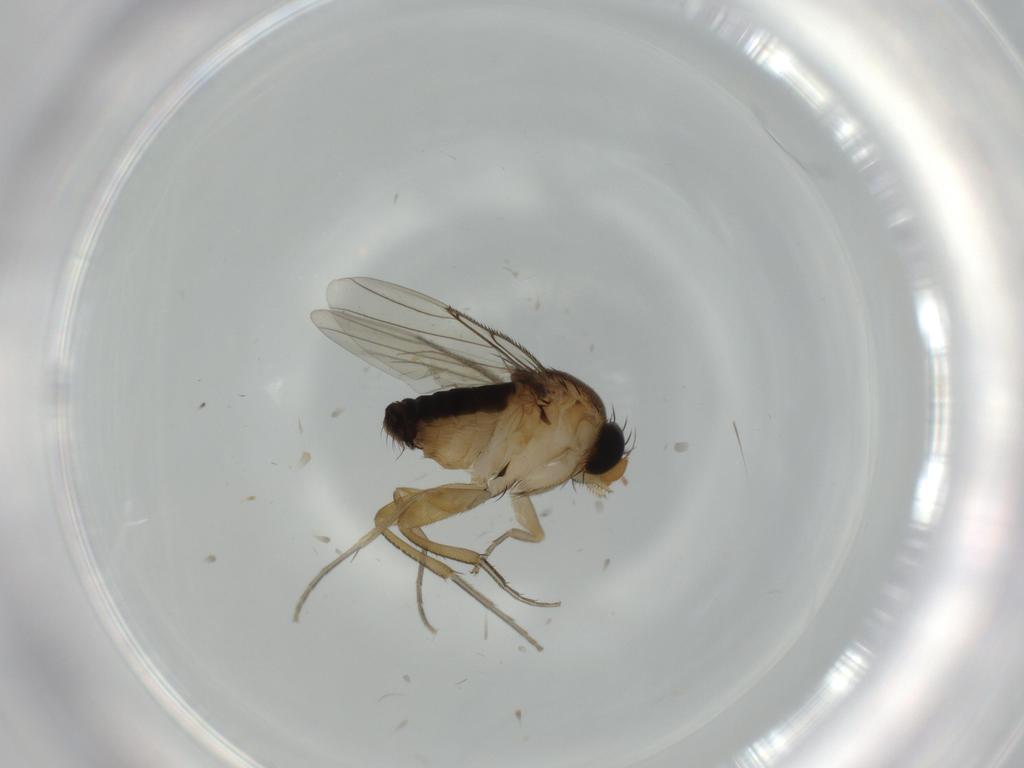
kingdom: Animalia
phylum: Arthropoda
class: Insecta
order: Diptera
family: Phoridae
